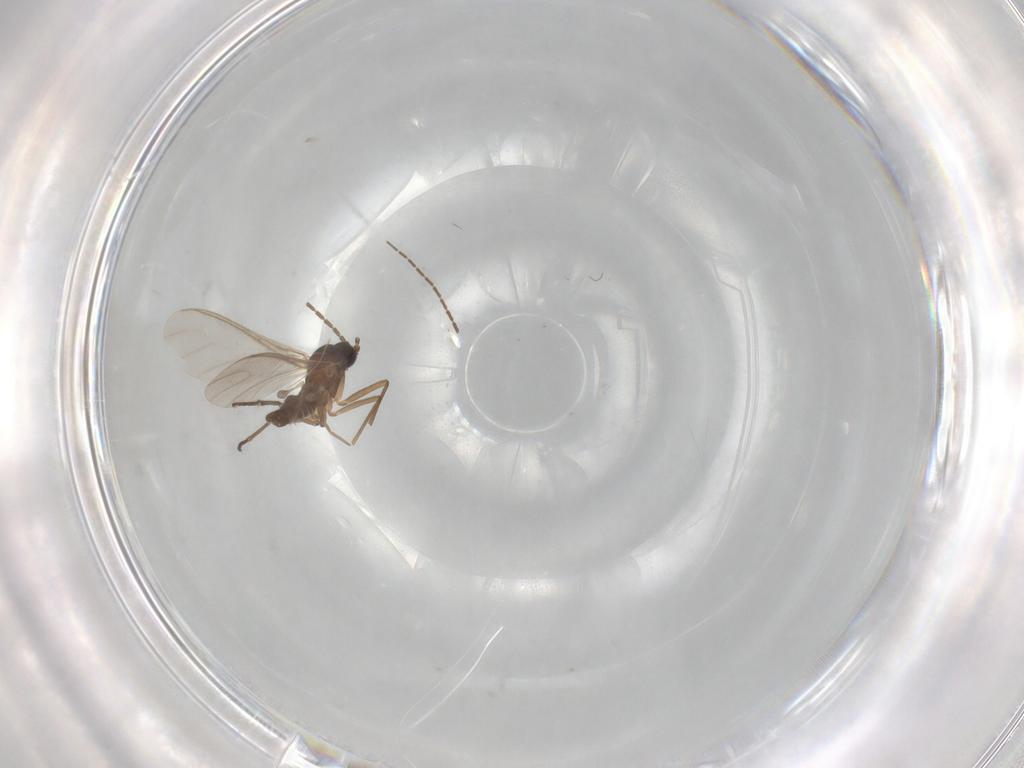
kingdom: Animalia
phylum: Arthropoda
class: Insecta
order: Diptera
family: Sciaridae
